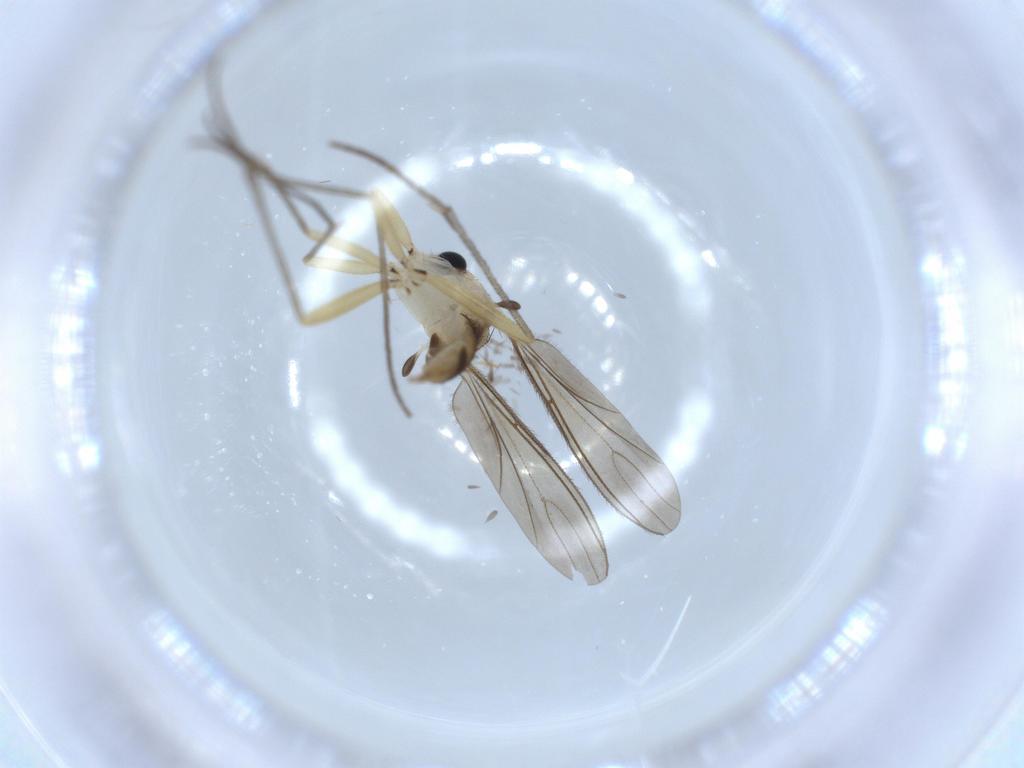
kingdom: Animalia
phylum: Arthropoda
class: Insecta
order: Diptera
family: Sciaridae
